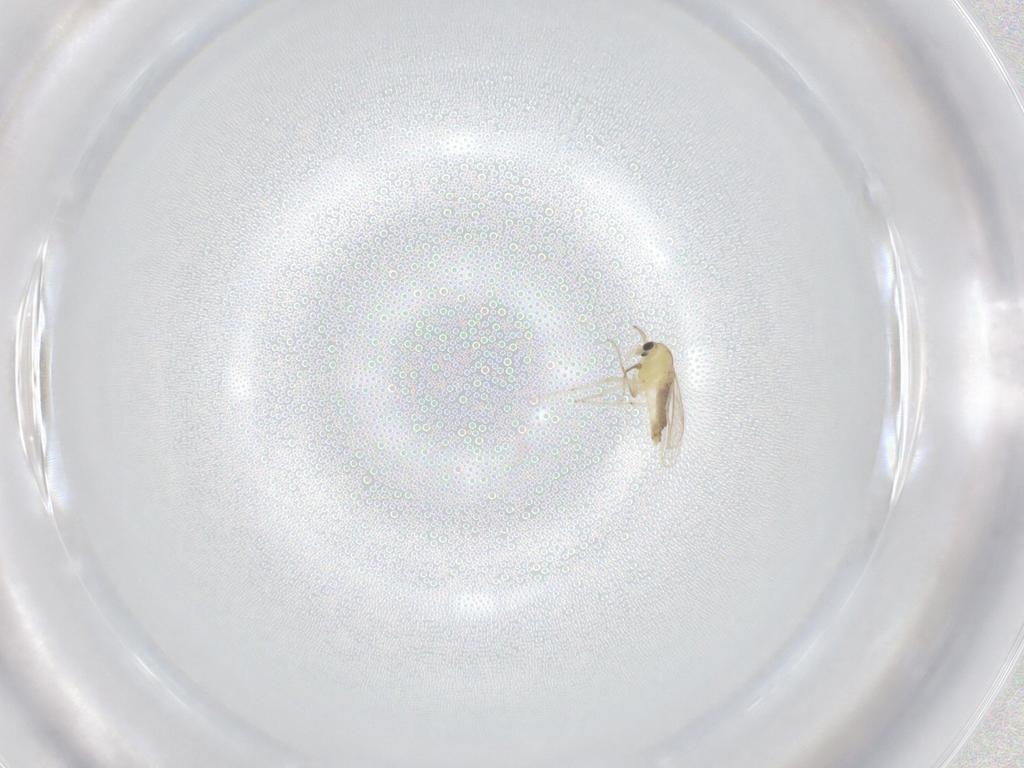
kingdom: Animalia
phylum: Arthropoda
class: Insecta
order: Diptera
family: Chironomidae
